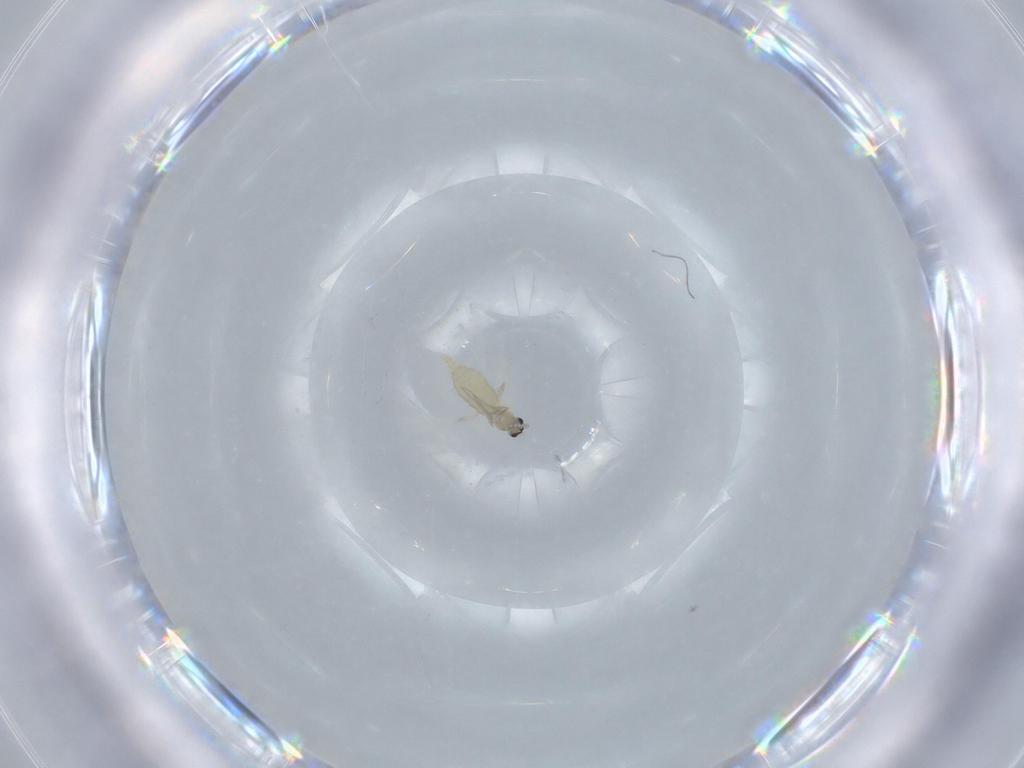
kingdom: Animalia
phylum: Arthropoda
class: Insecta
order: Diptera
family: Cecidomyiidae
